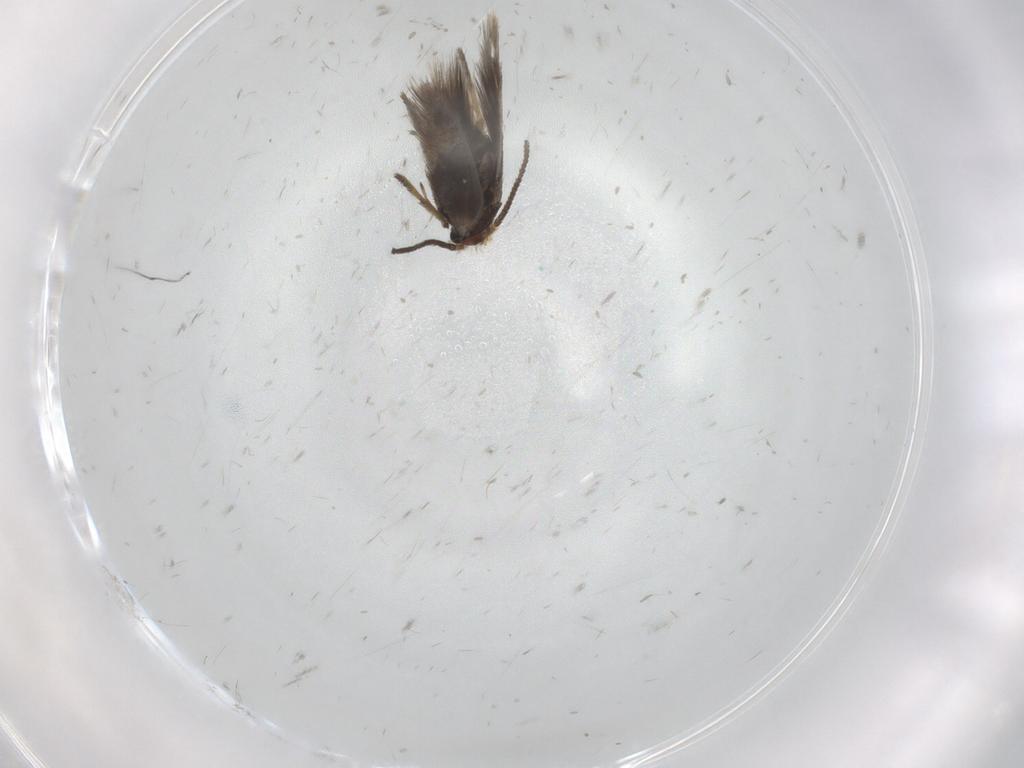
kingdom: Animalia
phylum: Arthropoda
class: Insecta
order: Lepidoptera
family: Nepticulidae
